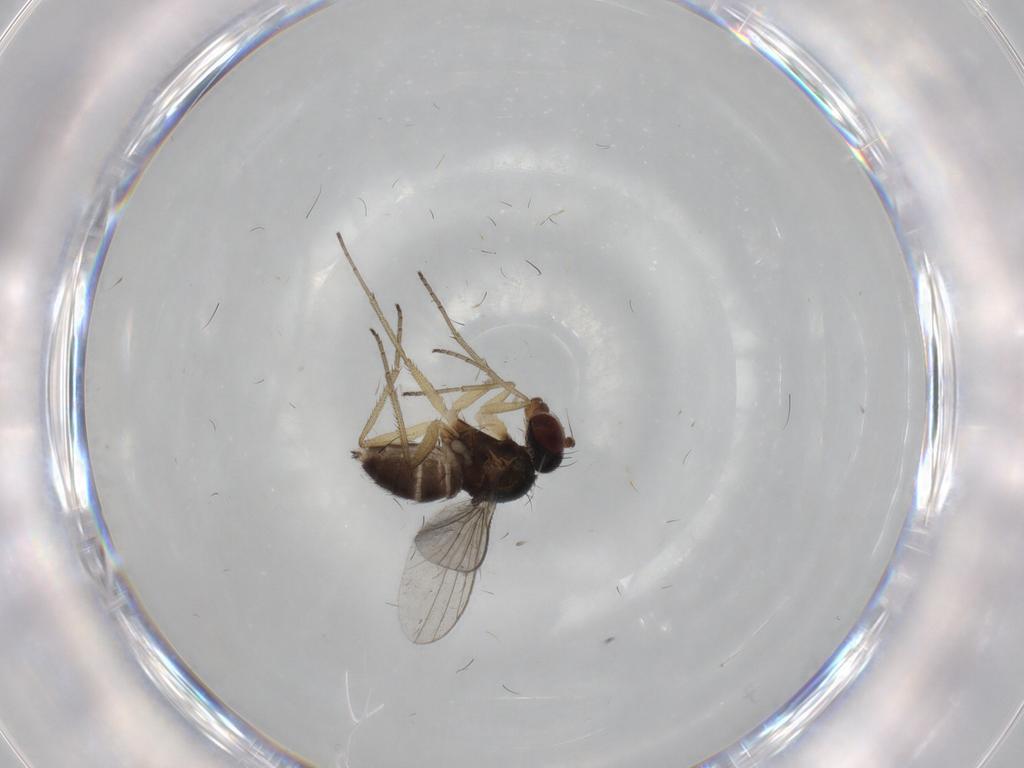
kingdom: Animalia
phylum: Arthropoda
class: Insecta
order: Diptera
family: Dolichopodidae
